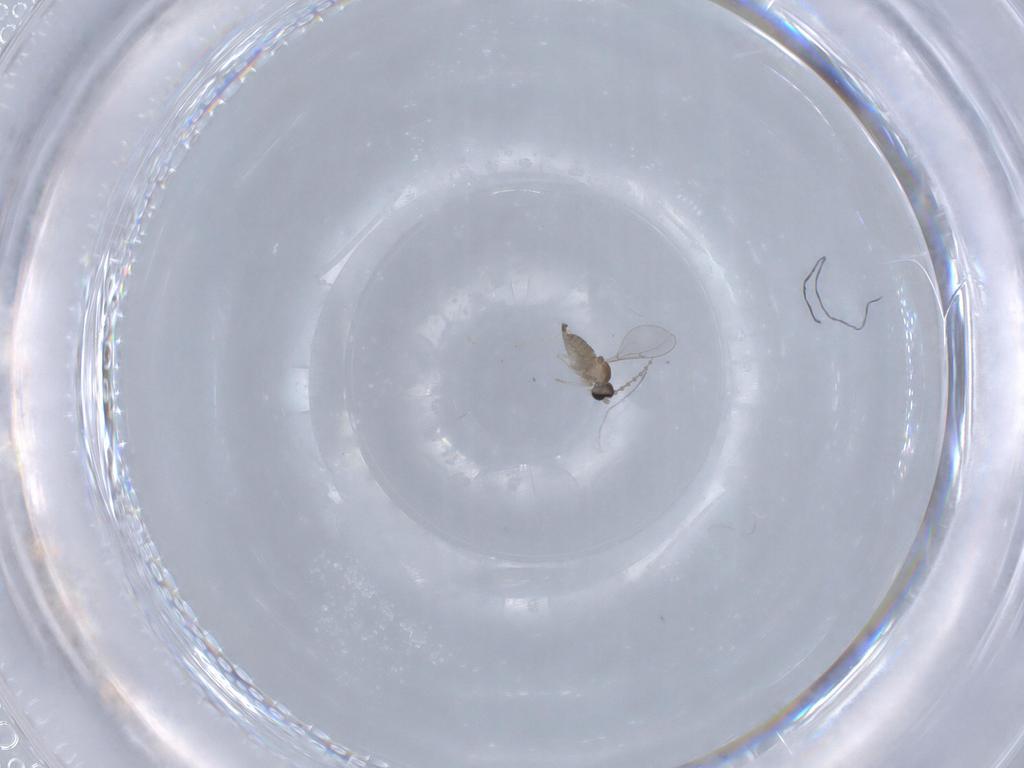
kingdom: Animalia
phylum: Arthropoda
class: Insecta
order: Diptera
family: Cecidomyiidae
